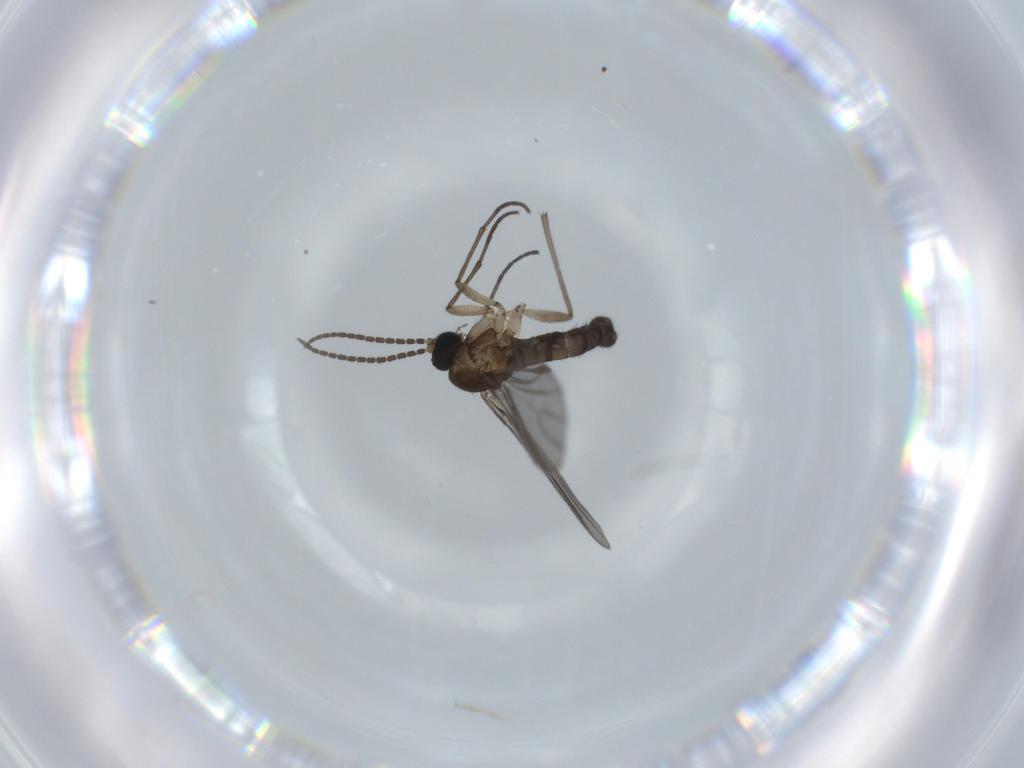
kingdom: Animalia
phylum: Arthropoda
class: Insecta
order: Diptera
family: Sciaridae
